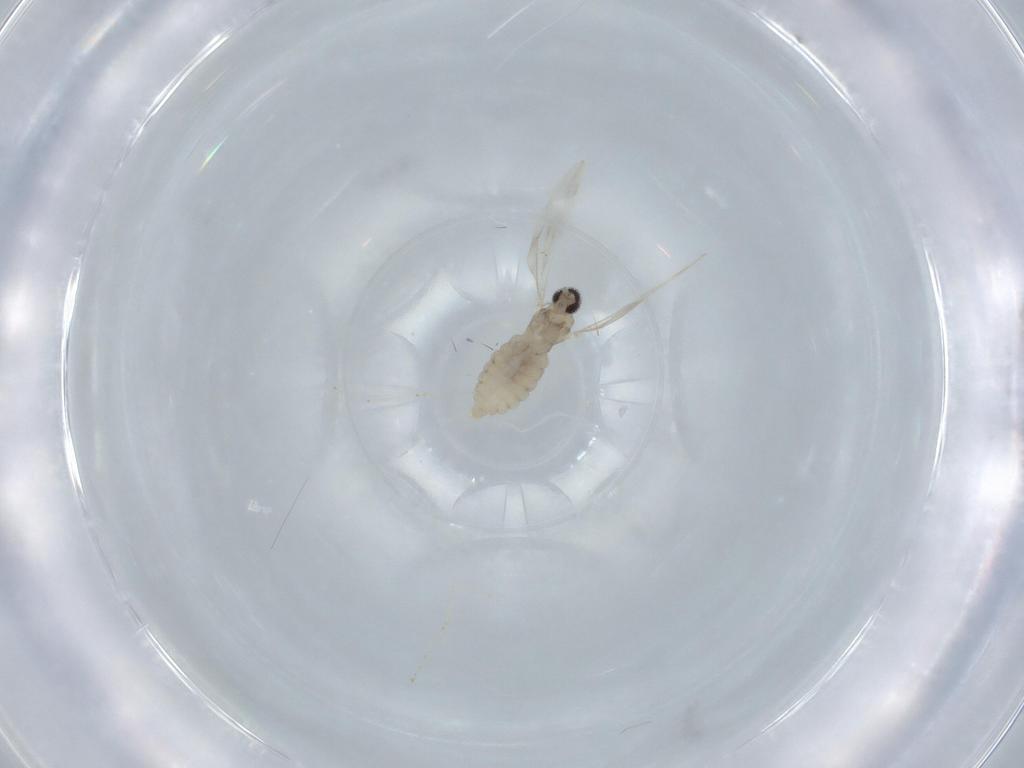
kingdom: Animalia
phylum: Arthropoda
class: Insecta
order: Diptera
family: Cecidomyiidae
